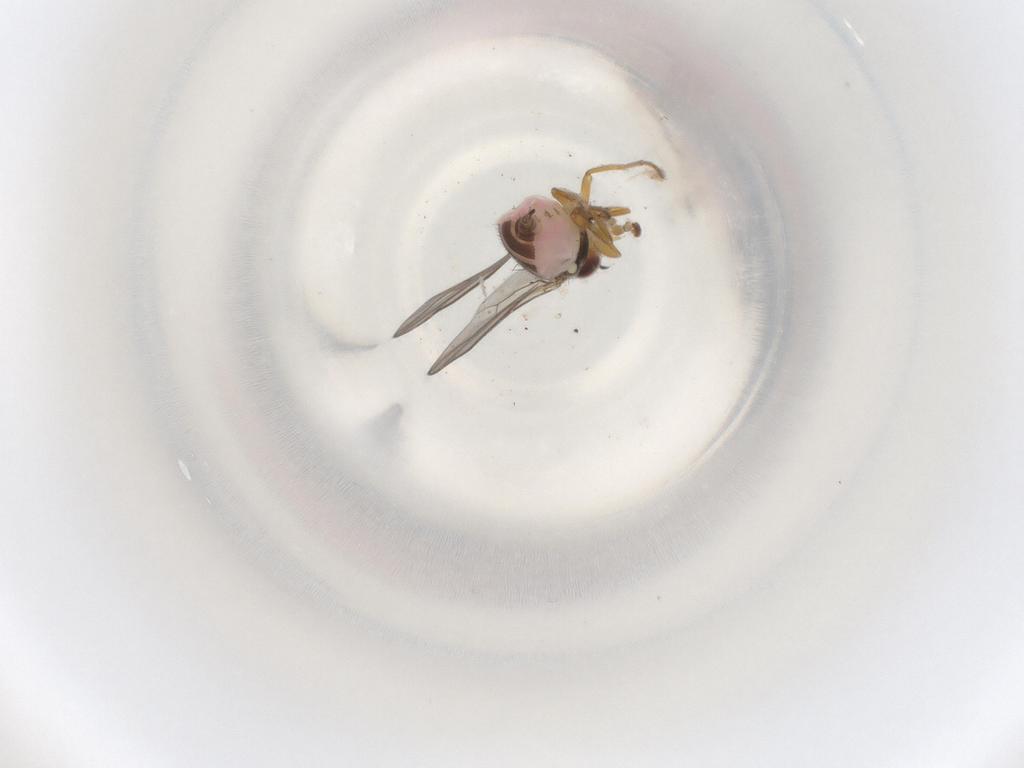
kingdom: Animalia
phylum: Arthropoda
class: Insecta
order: Diptera
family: Chloropidae
